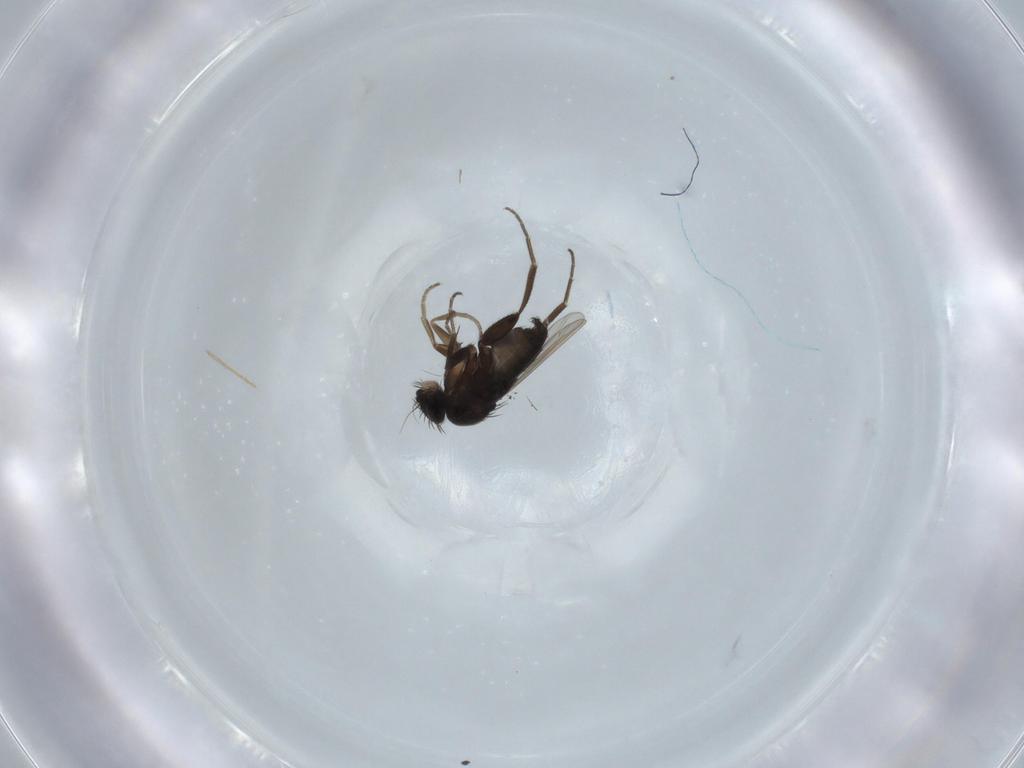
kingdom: Animalia
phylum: Arthropoda
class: Insecta
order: Diptera
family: Phoridae
